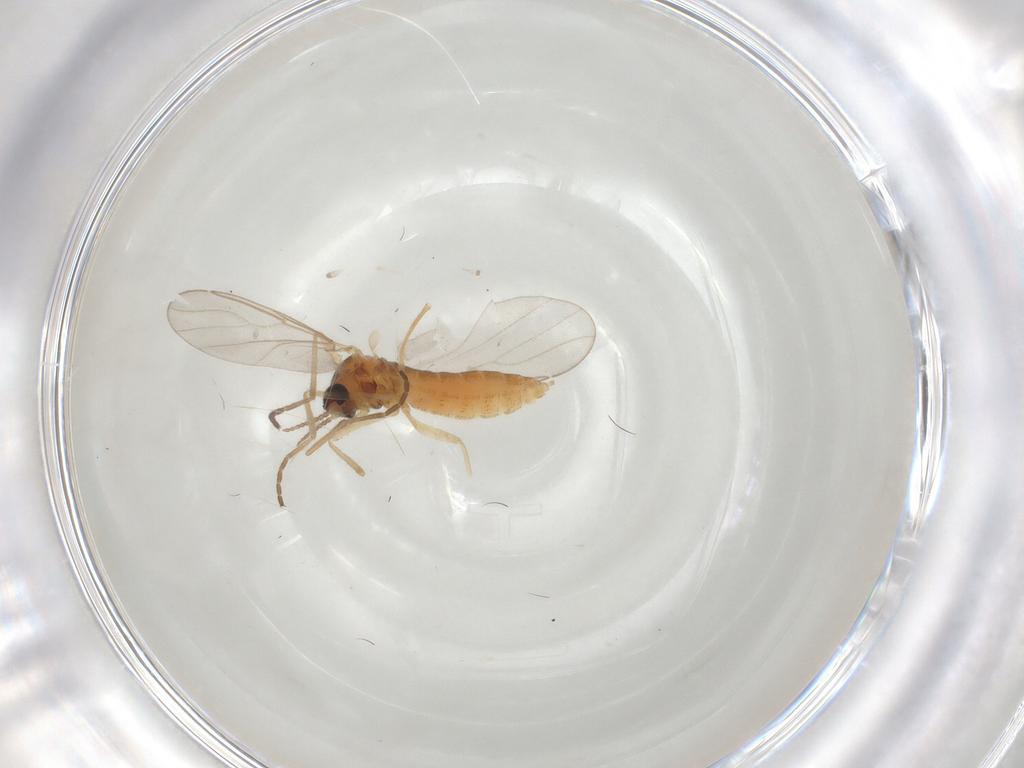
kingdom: Animalia
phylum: Arthropoda
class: Insecta
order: Diptera
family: Cecidomyiidae
